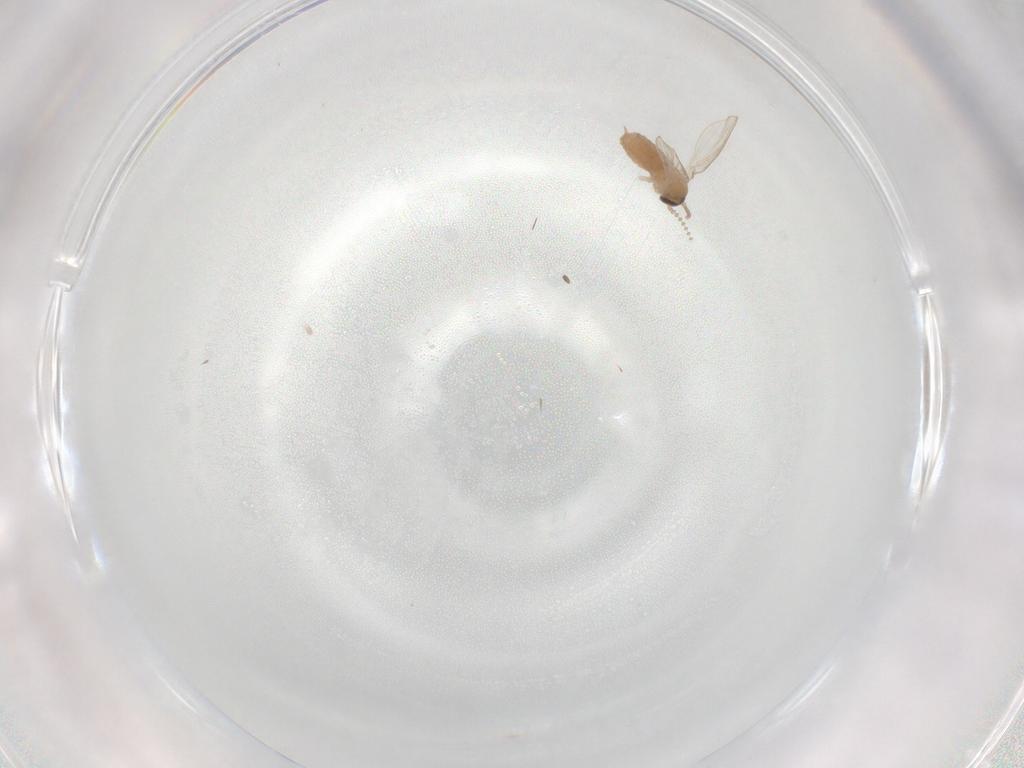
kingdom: Animalia
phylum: Arthropoda
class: Insecta
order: Diptera
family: Psychodidae
